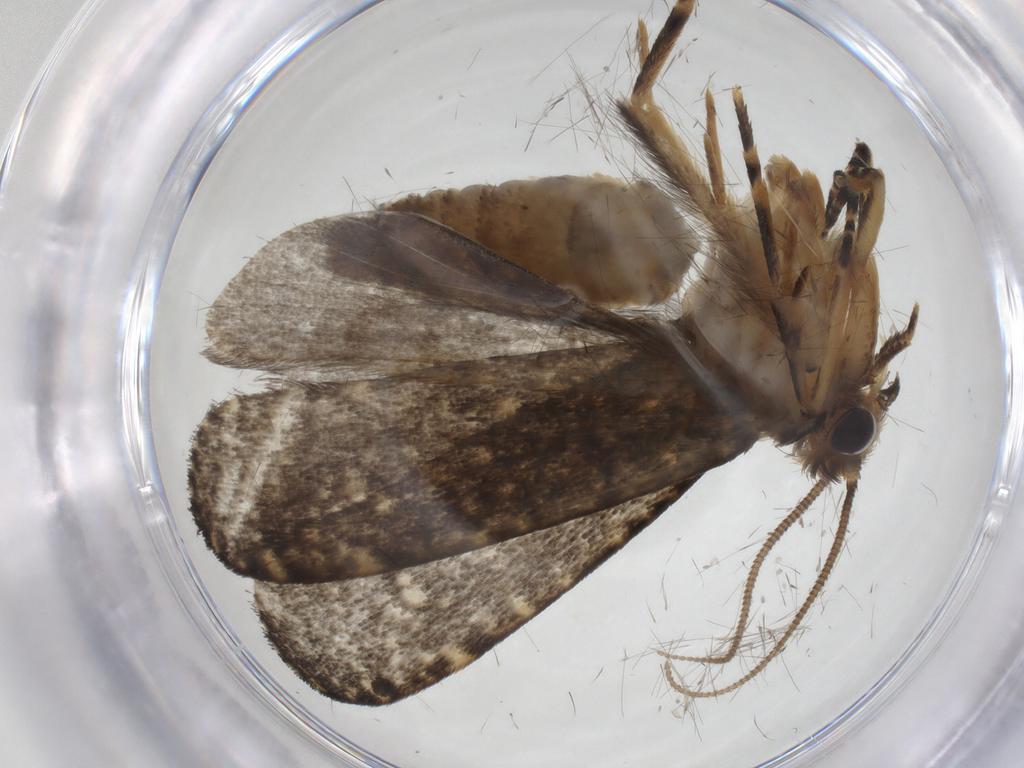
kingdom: Animalia
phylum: Arthropoda
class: Insecta
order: Lepidoptera
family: Tineidae
